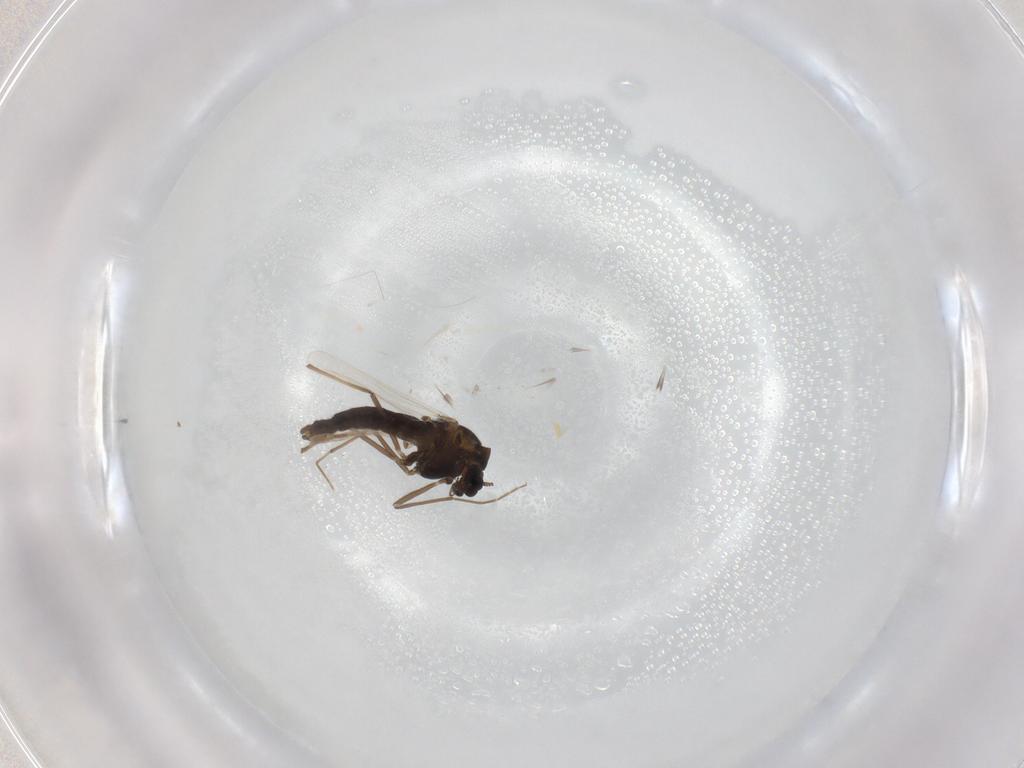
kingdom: Animalia
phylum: Arthropoda
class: Insecta
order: Diptera
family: Chironomidae
